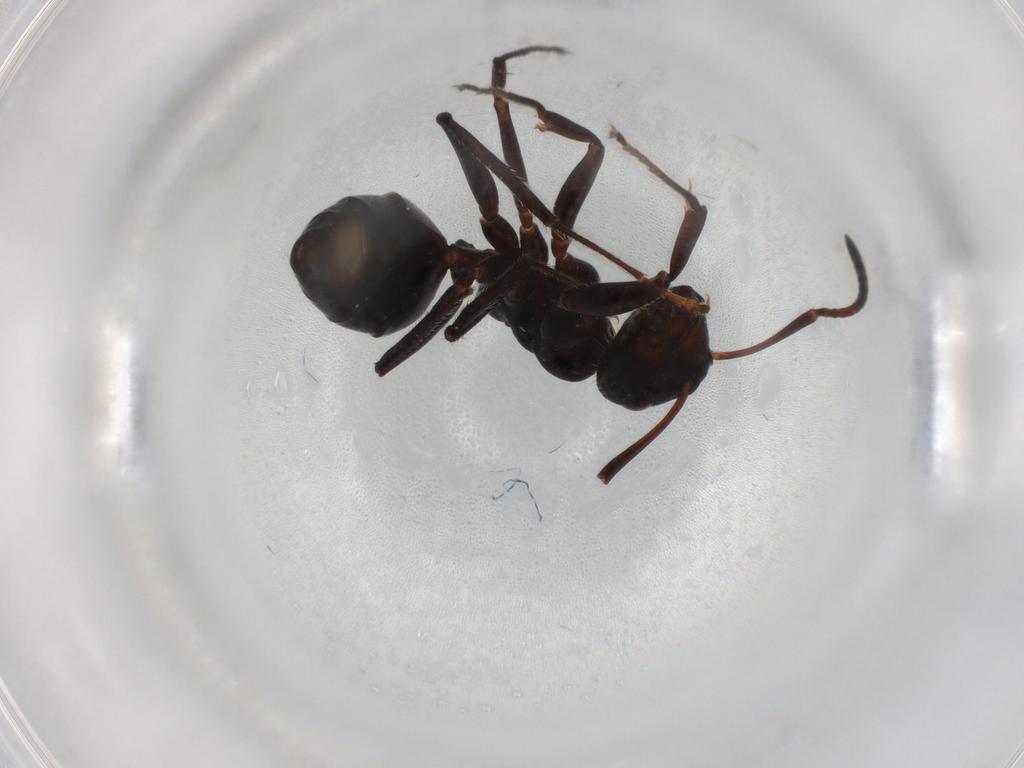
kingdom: Animalia
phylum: Arthropoda
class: Insecta
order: Hymenoptera
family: Formicidae
